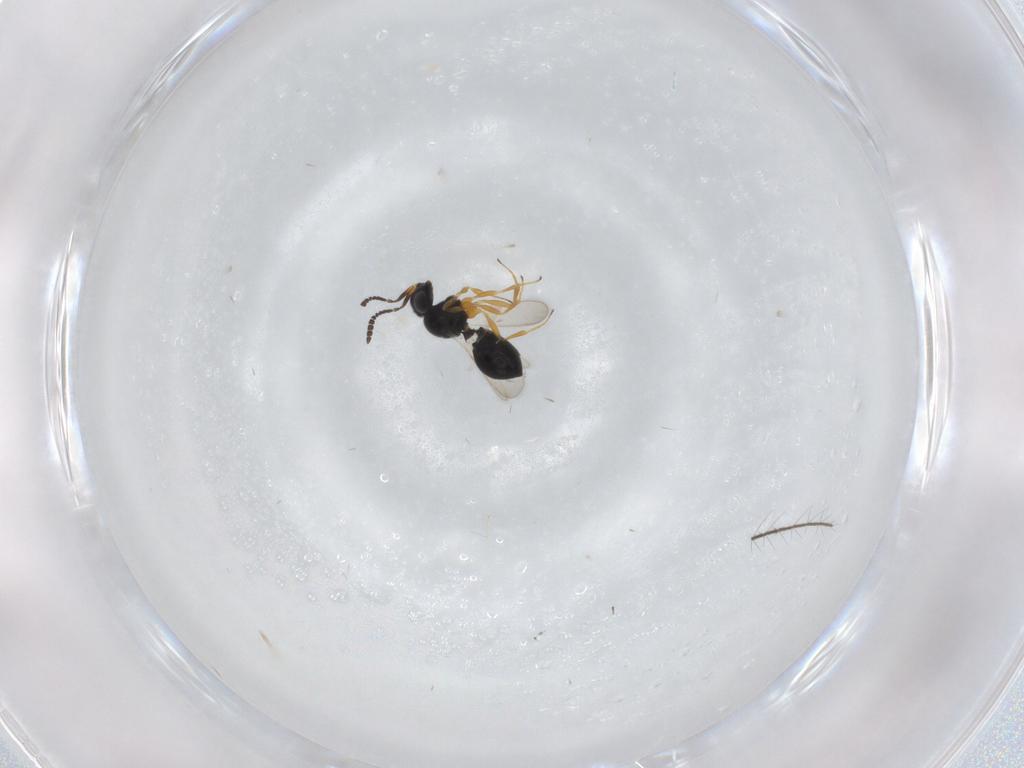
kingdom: Animalia
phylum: Arthropoda
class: Insecta
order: Hymenoptera
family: Scelionidae
